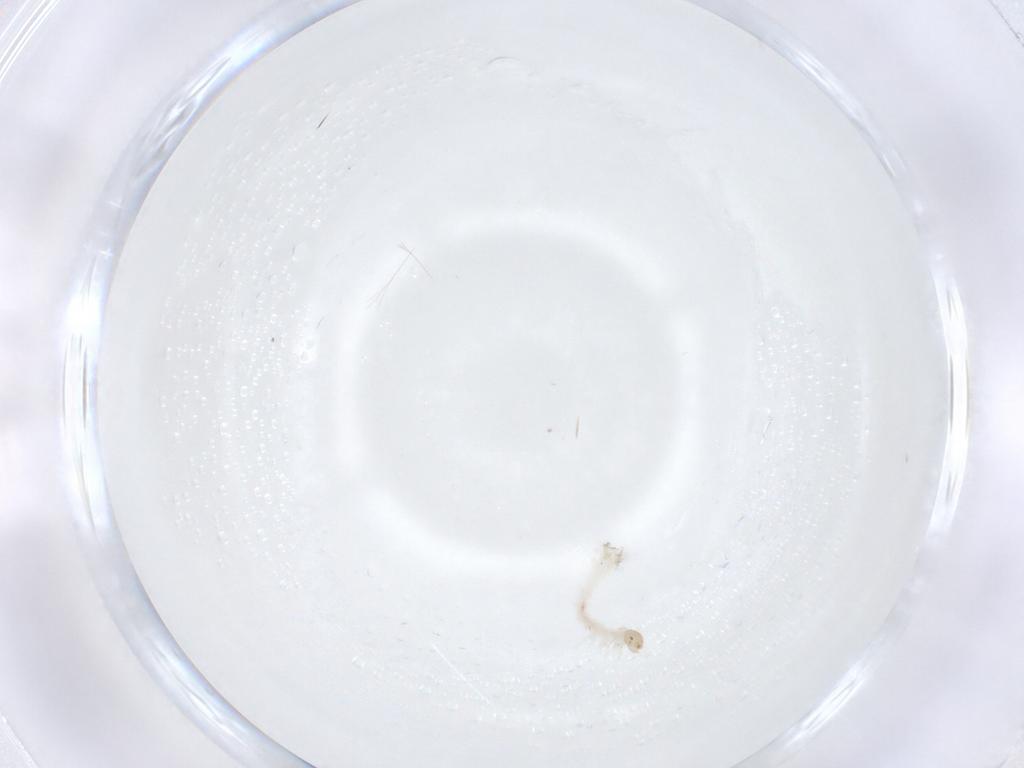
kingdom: Animalia
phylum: Arthropoda
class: Insecta
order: Lepidoptera
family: Erebidae
